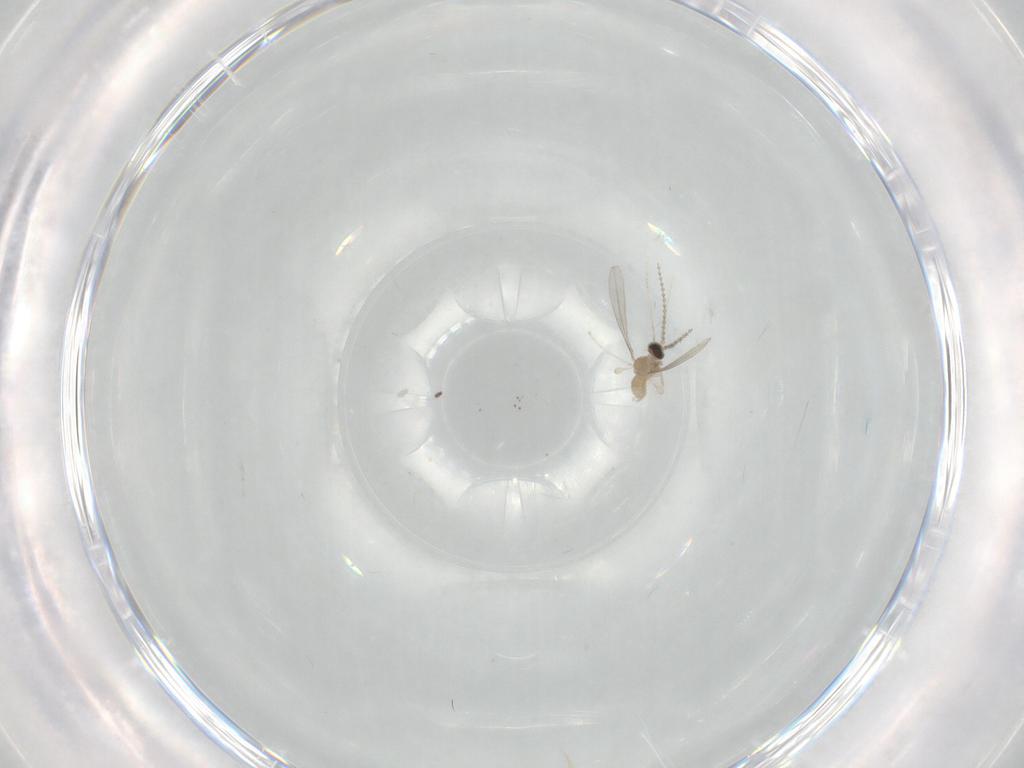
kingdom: Animalia
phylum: Arthropoda
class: Insecta
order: Diptera
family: Cecidomyiidae
